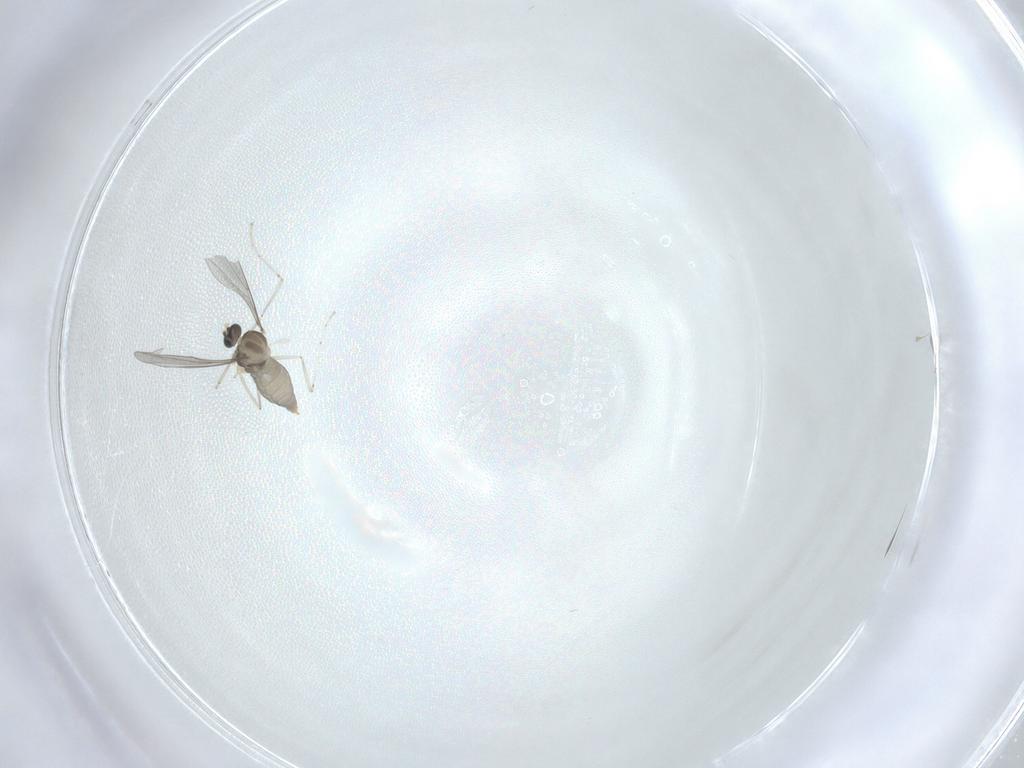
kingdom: Animalia
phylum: Arthropoda
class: Insecta
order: Diptera
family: Cecidomyiidae
